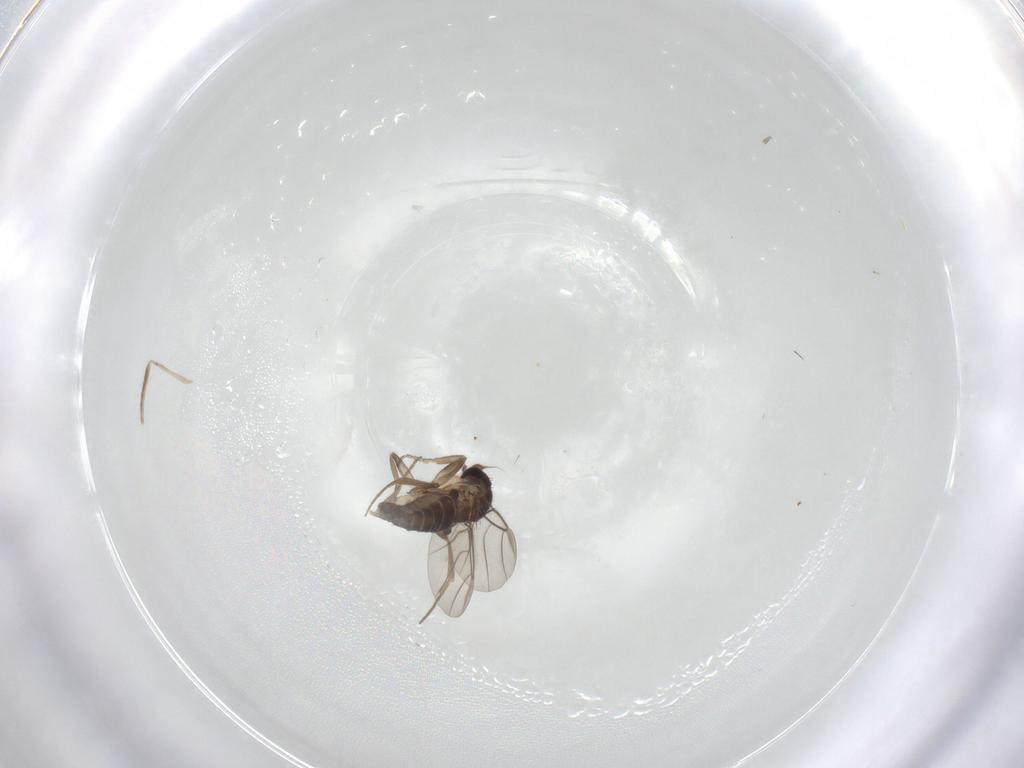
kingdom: Animalia
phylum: Arthropoda
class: Insecta
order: Diptera
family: Phoridae
